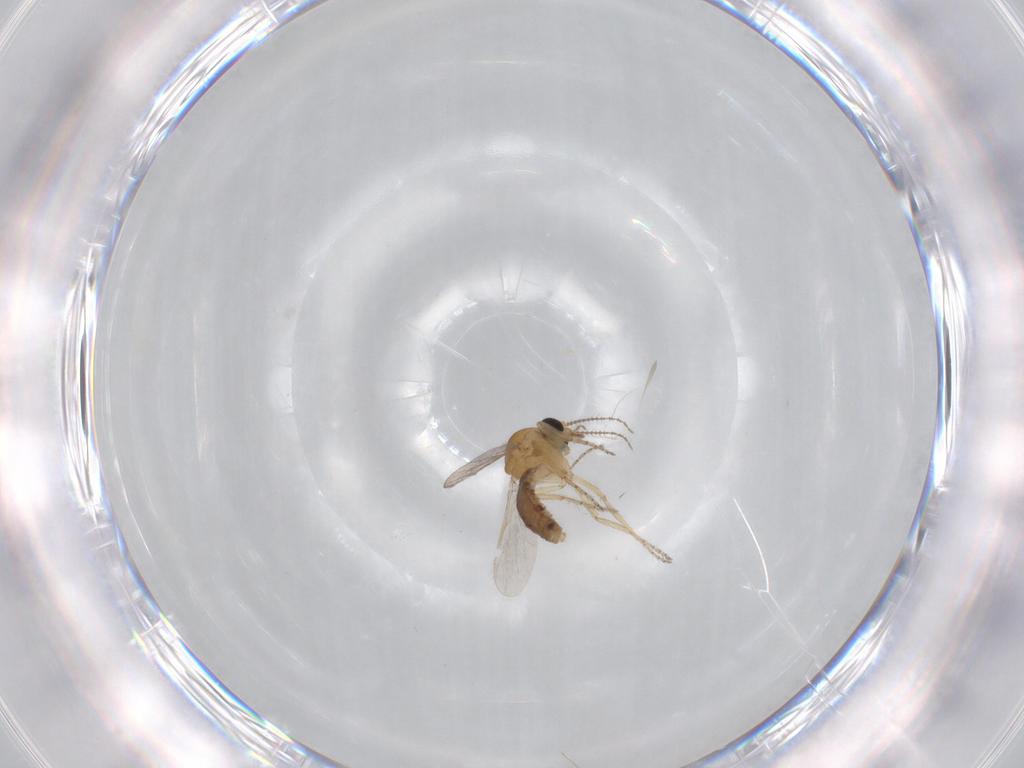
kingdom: Animalia
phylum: Arthropoda
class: Insecta
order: Diptera
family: Ceratopogonidae
